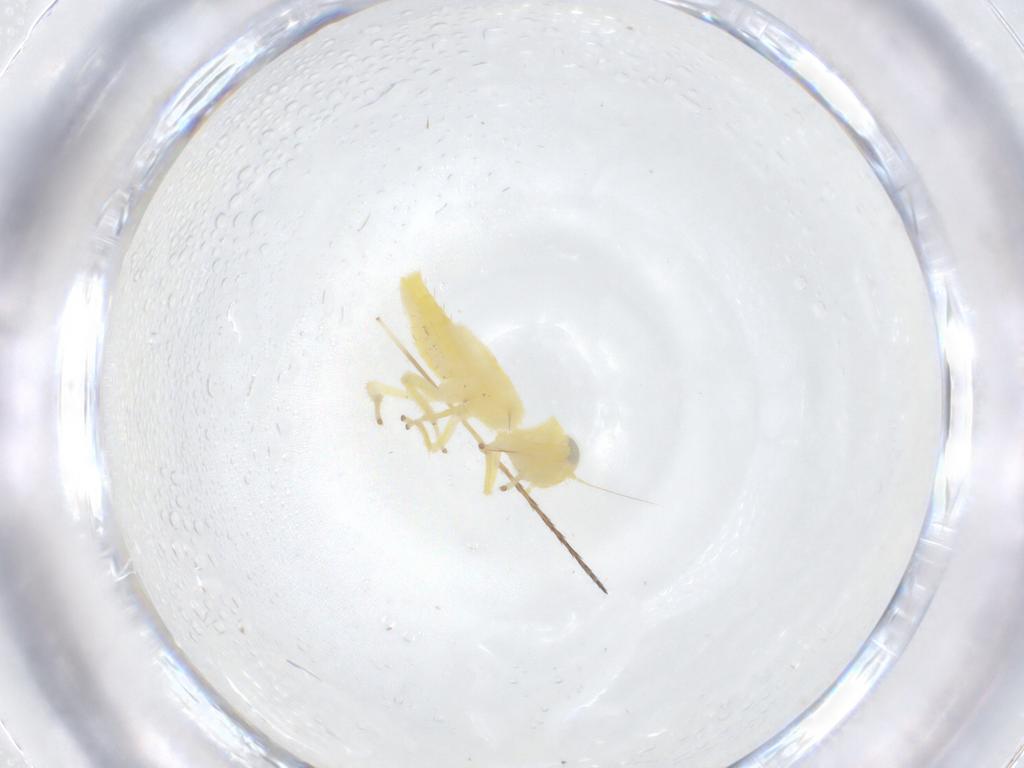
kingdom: Animalia
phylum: Arthropoda
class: Insecta
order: Hemiptera
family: Cicadellidae
